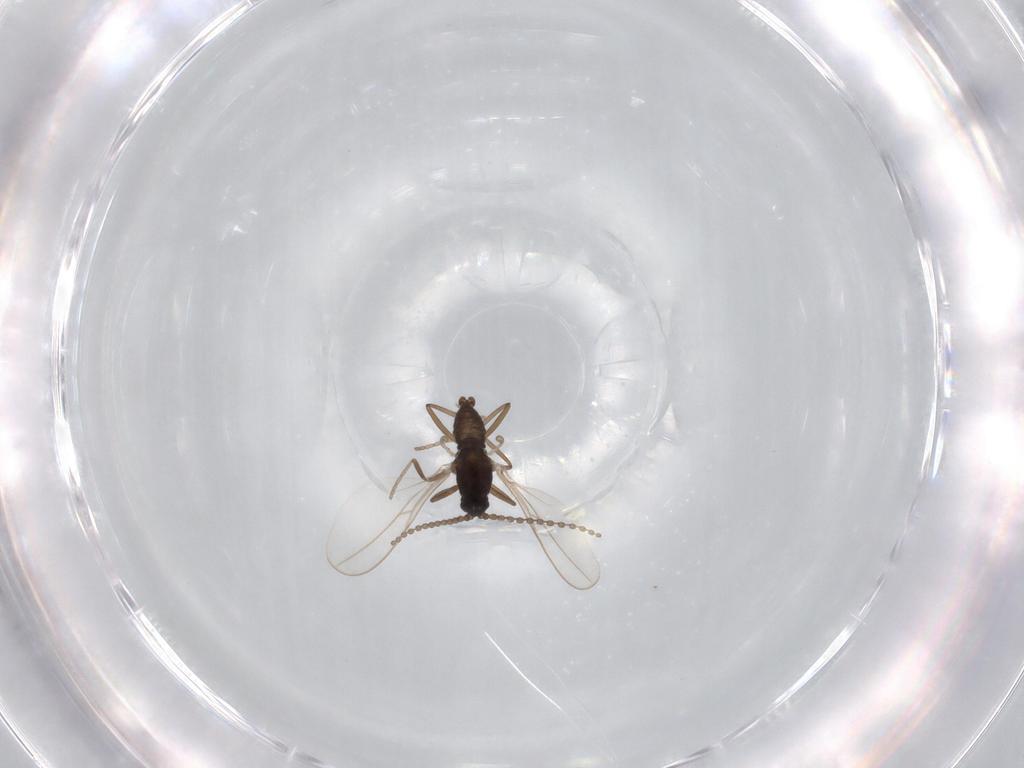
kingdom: Animalia
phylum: Arthropoda
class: Insecta
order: Diptera
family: Cecidomyiidae
